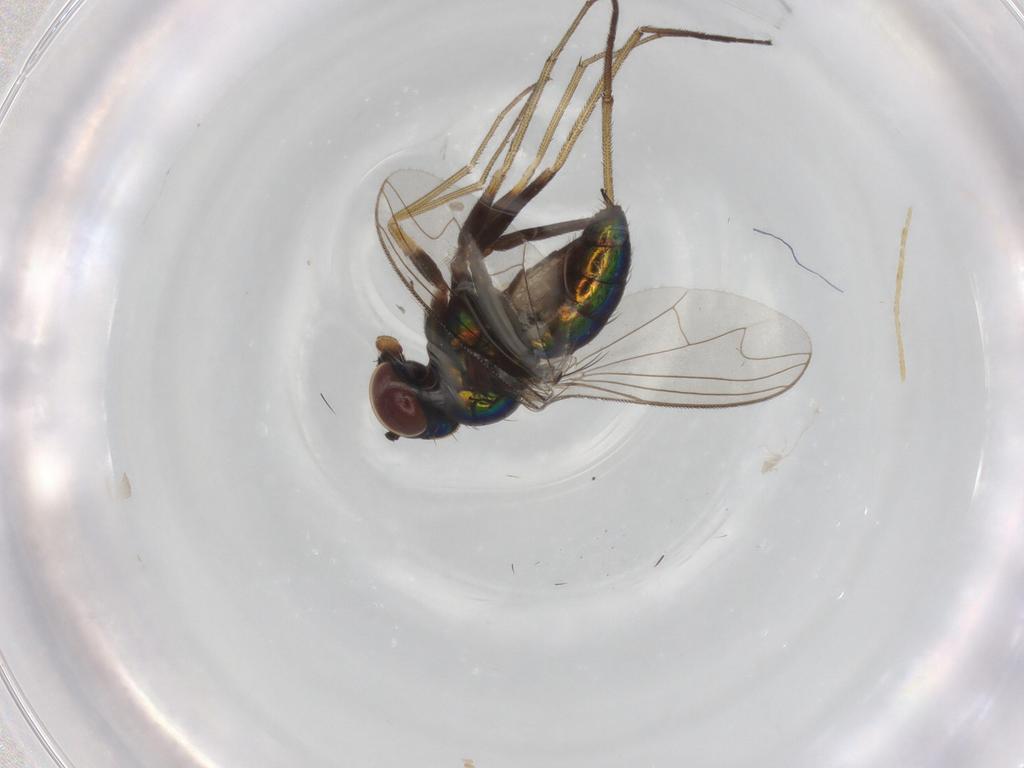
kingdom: Animalia
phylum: Arthropoda
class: Insecta
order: Diptera
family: Dolichopodidae
